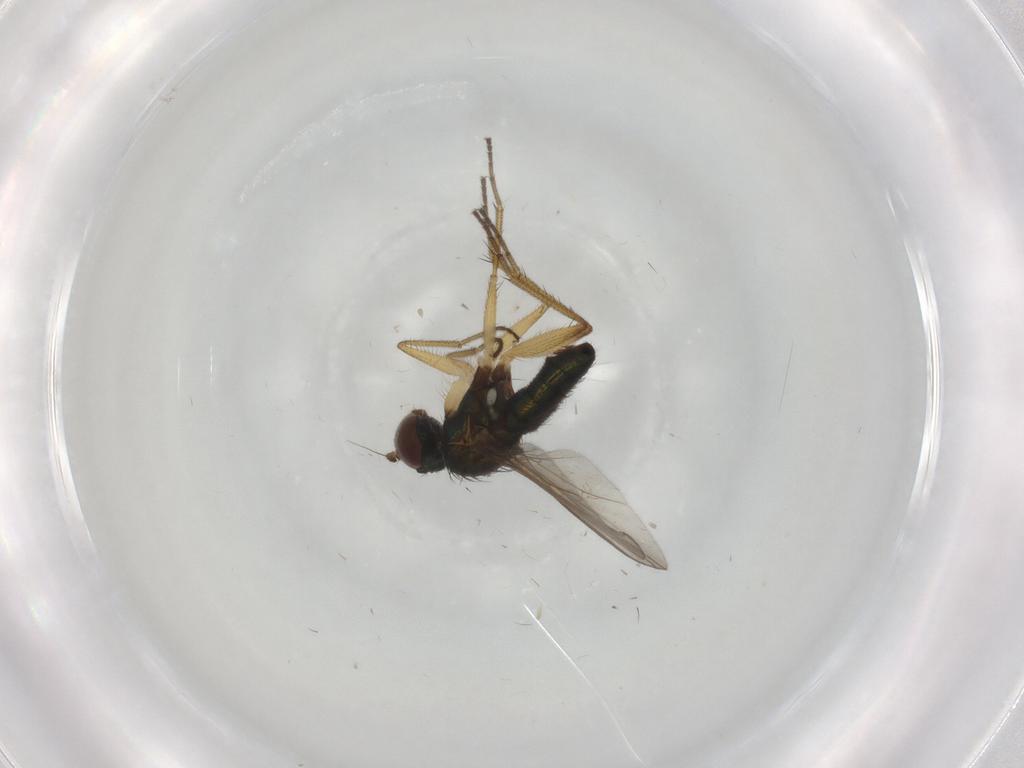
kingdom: Animalia
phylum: Arthropoda
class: Insecta
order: Diptera
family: Dolichopodidae
